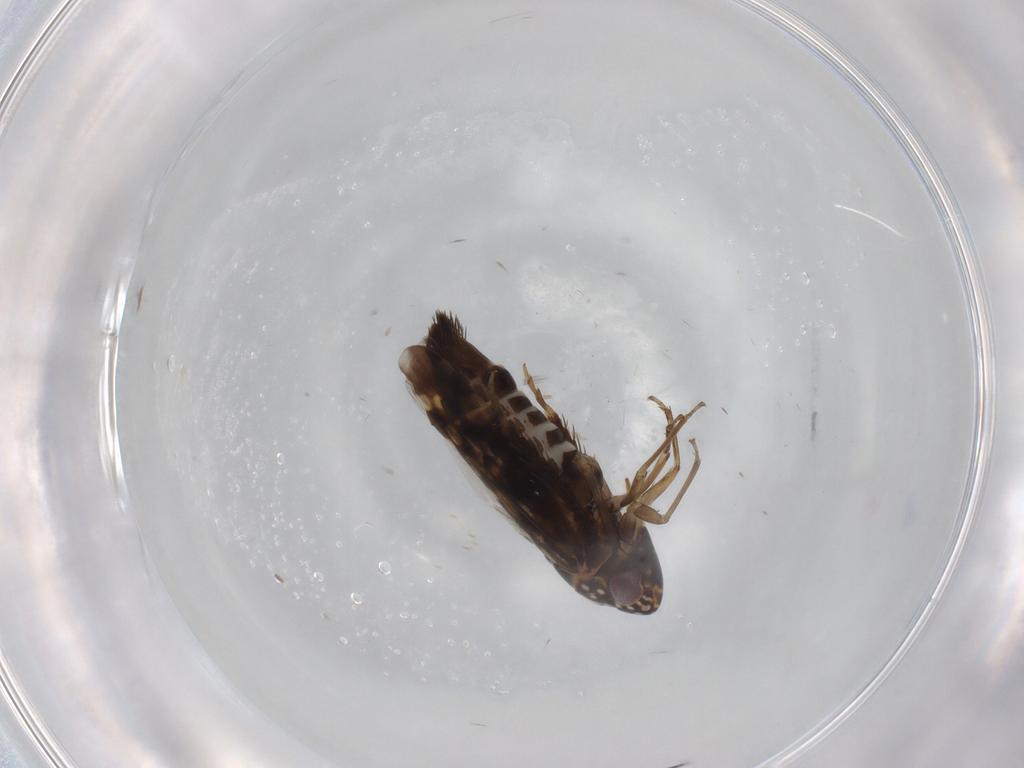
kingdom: Animalia
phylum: Arthropoda
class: Insecta
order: Hemiptera
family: Cicadellidae
